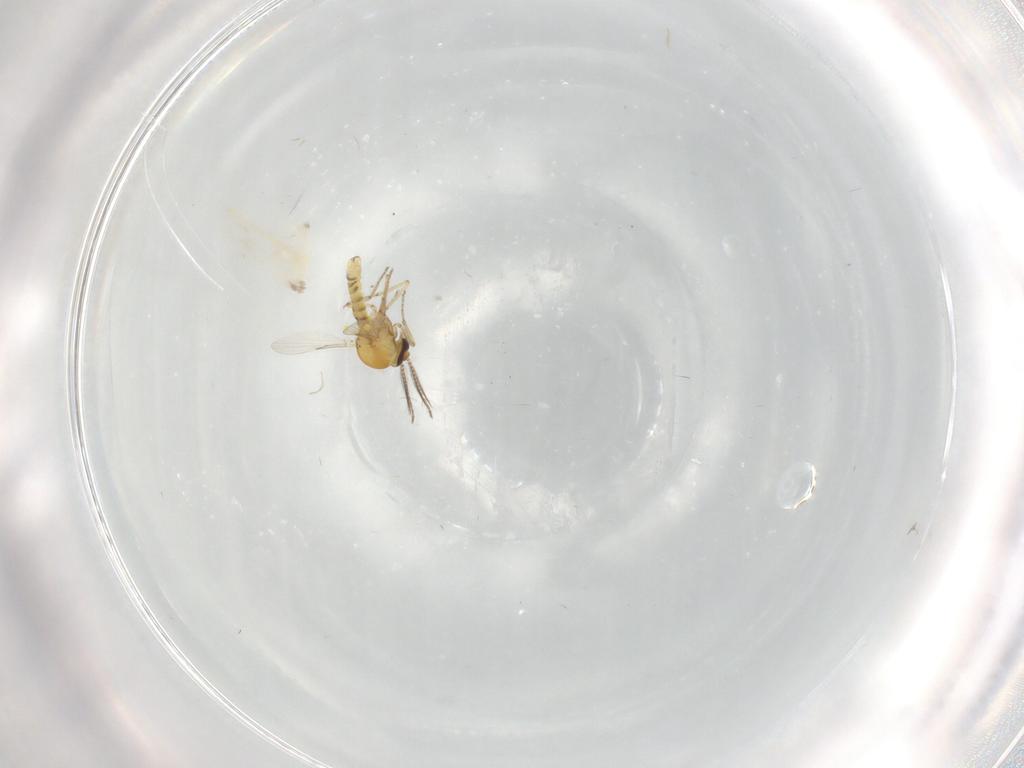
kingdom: Animalia
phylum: Arthropoda
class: Insecta
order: Diptera
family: Ceratopogonidae
